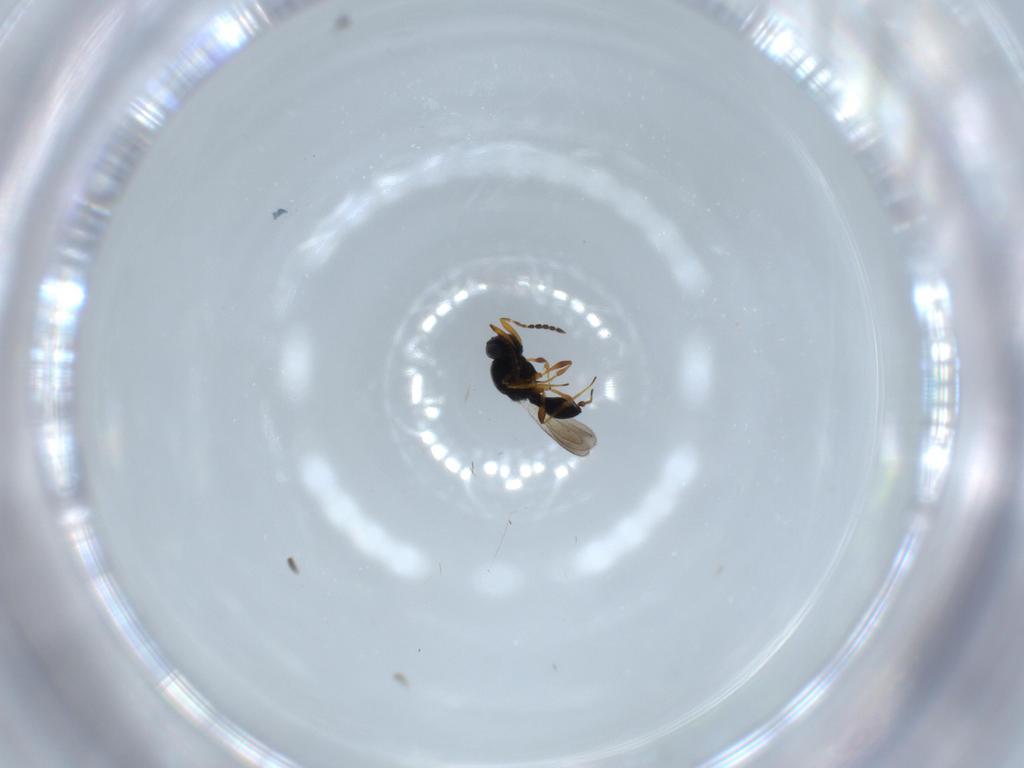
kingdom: Animalia
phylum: Arthropoda
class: Insecta
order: Hymenoptera
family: Platygastridae
